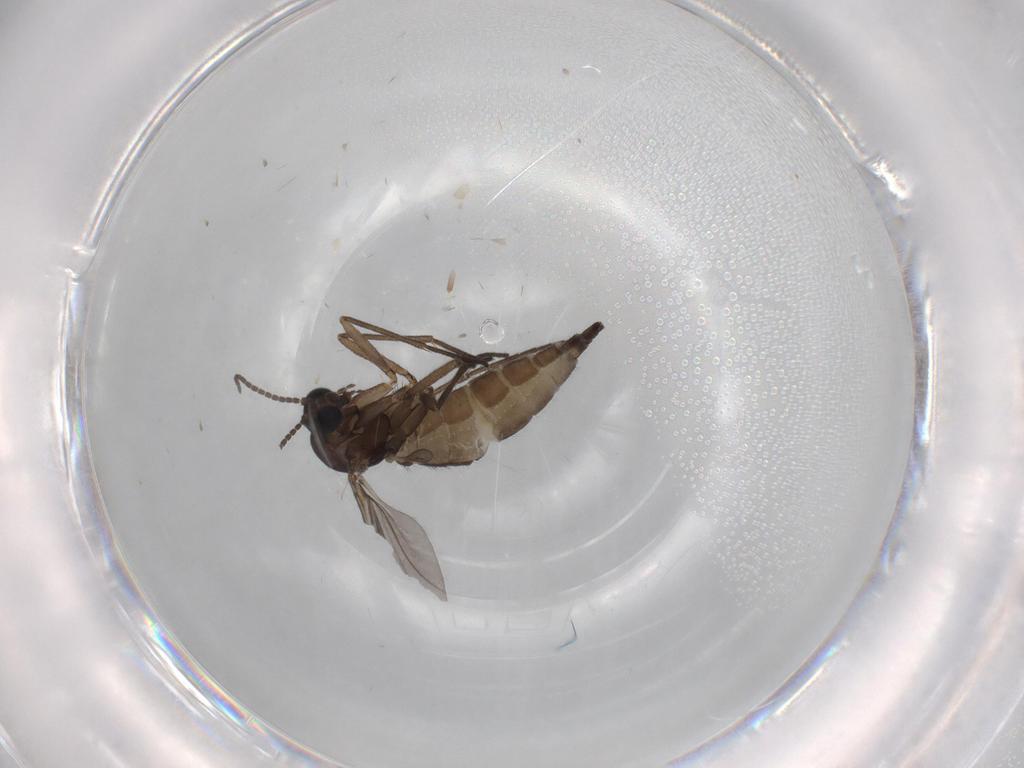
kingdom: Animalia
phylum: Arthropoda
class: Insecta
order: Diptera
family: Sciaridae
